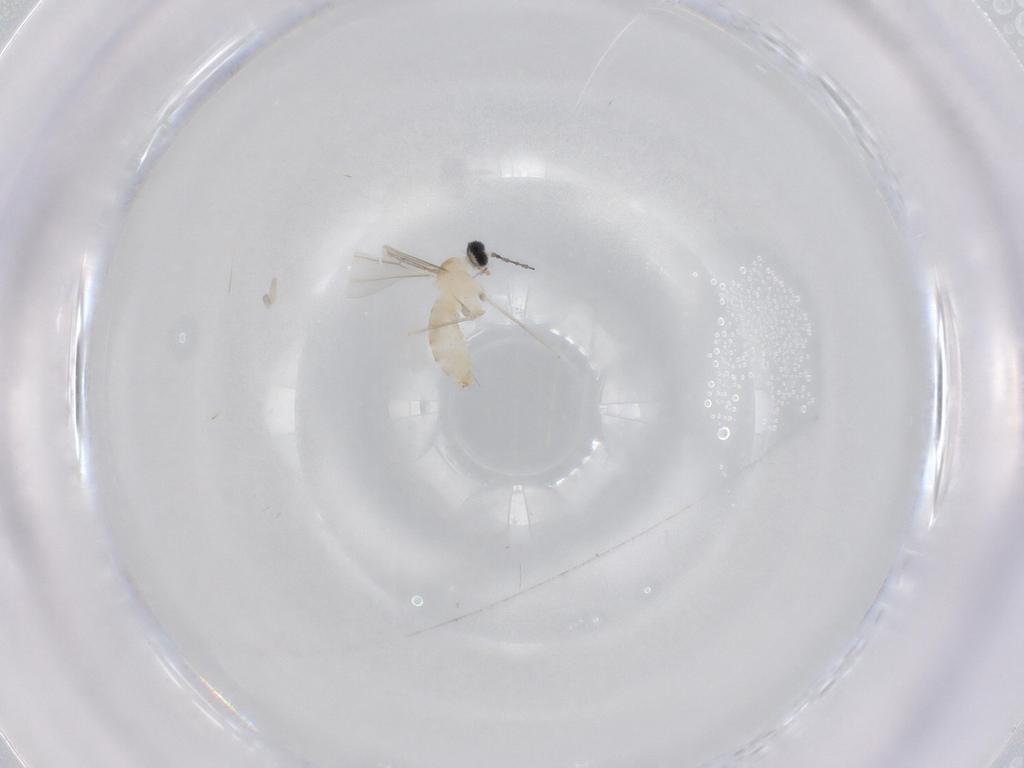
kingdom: Animalia
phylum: Arthropoda
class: Insecta
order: Diptera
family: Cecidomyiidae
